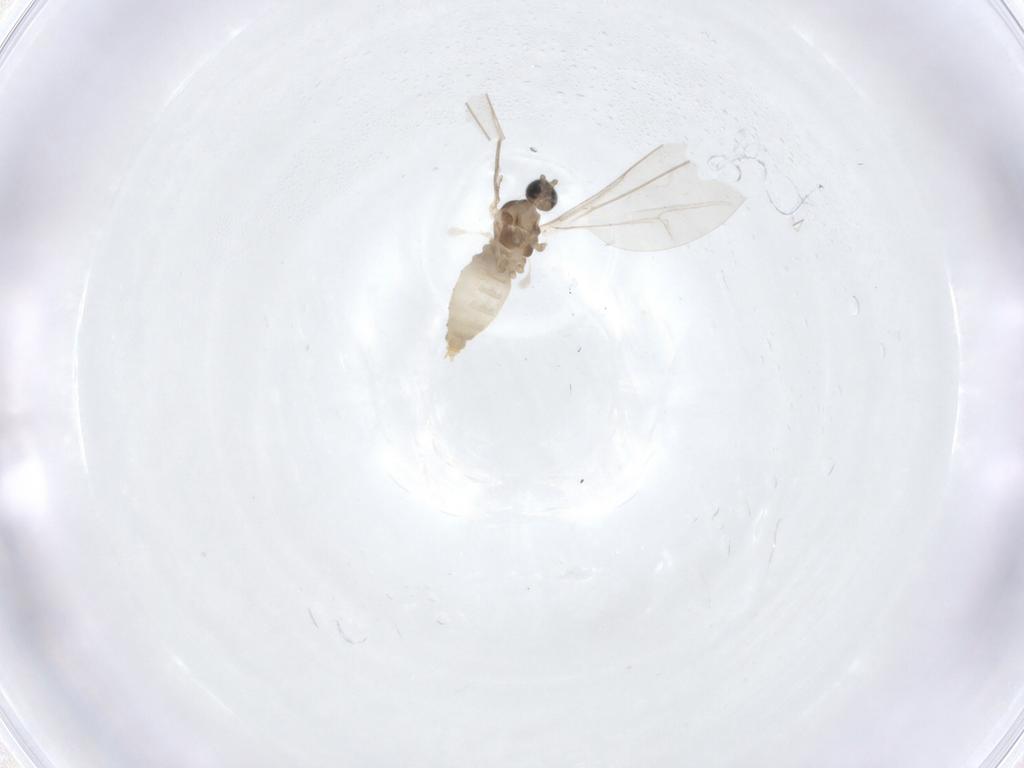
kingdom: Animalia
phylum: Arthropoda
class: Insecta
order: Diptera
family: Cecidomyiidae
